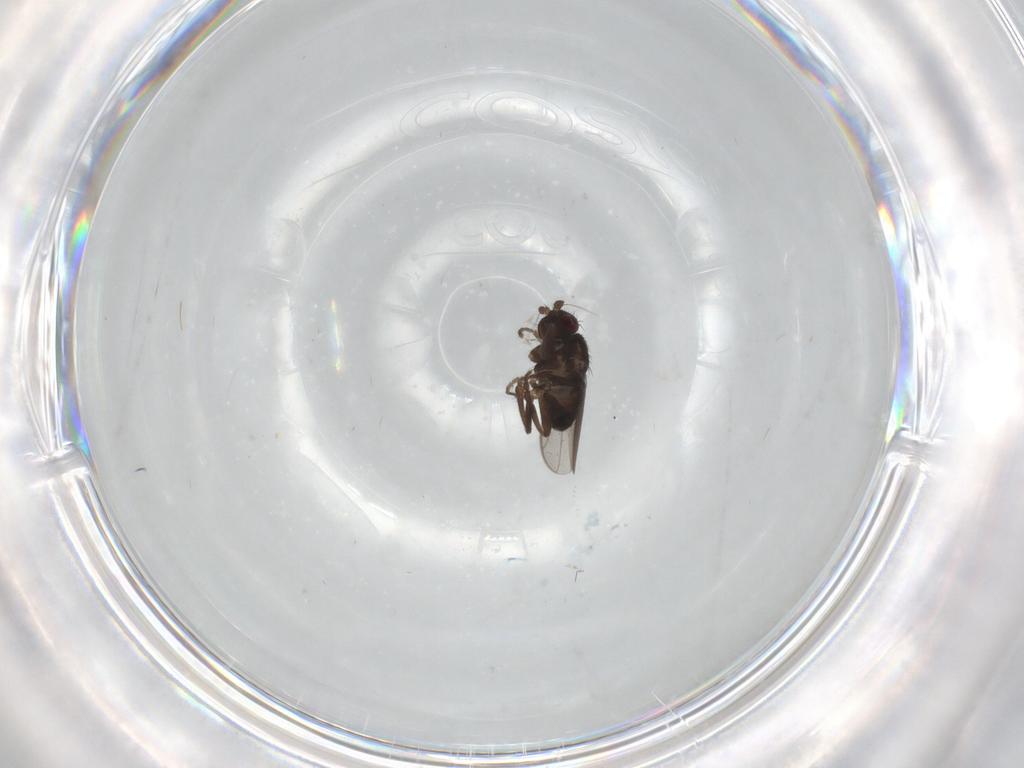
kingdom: Animalia
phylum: Arthropoda
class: Insecta
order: Diptera
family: Sphaeroceridae
